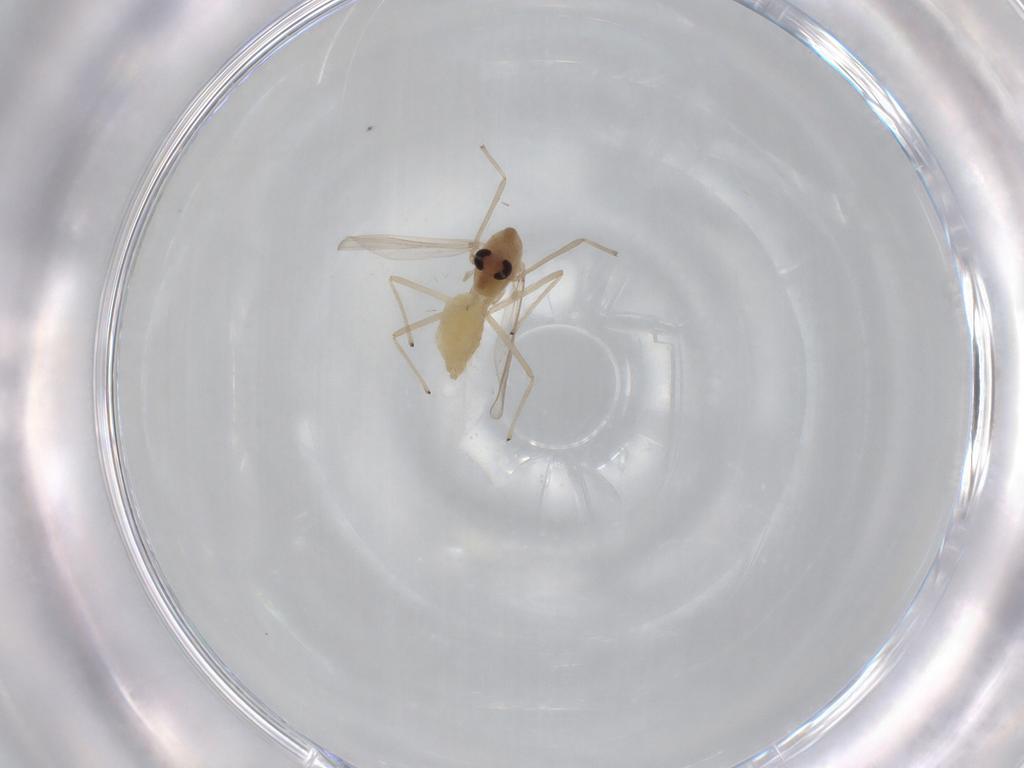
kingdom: Animalia
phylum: Arthropoda
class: Insecta
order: Diptera
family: Chironomidae
